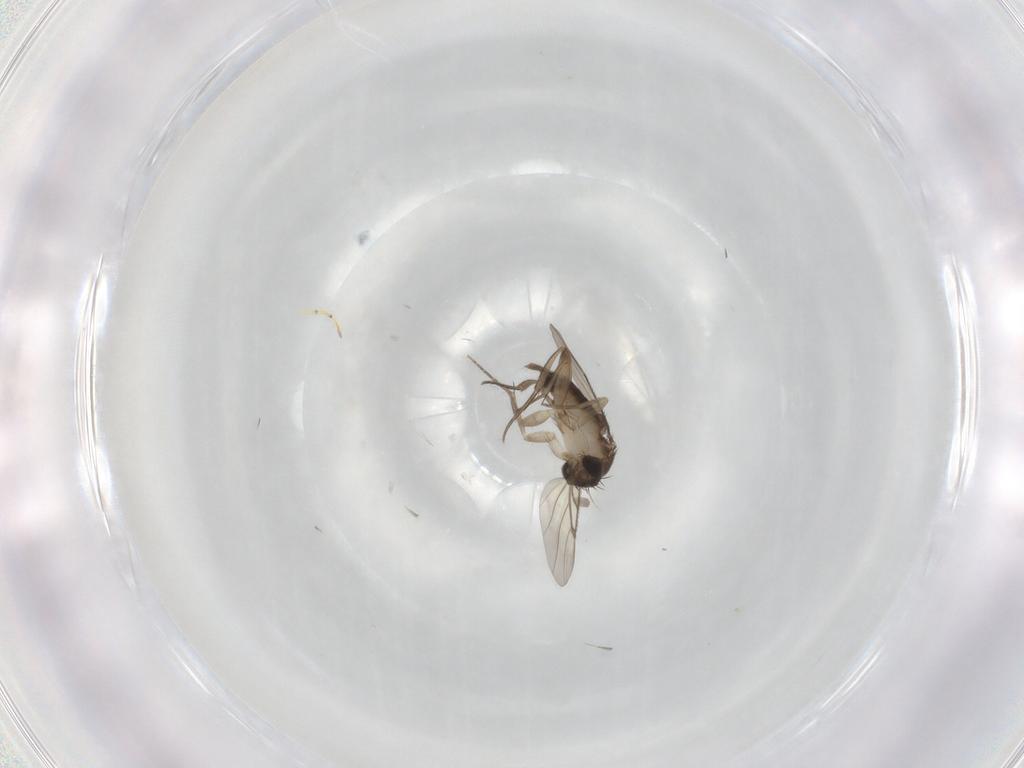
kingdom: Animalia
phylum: Arthropoda
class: Insecta
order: Diptera
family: Phoridae
